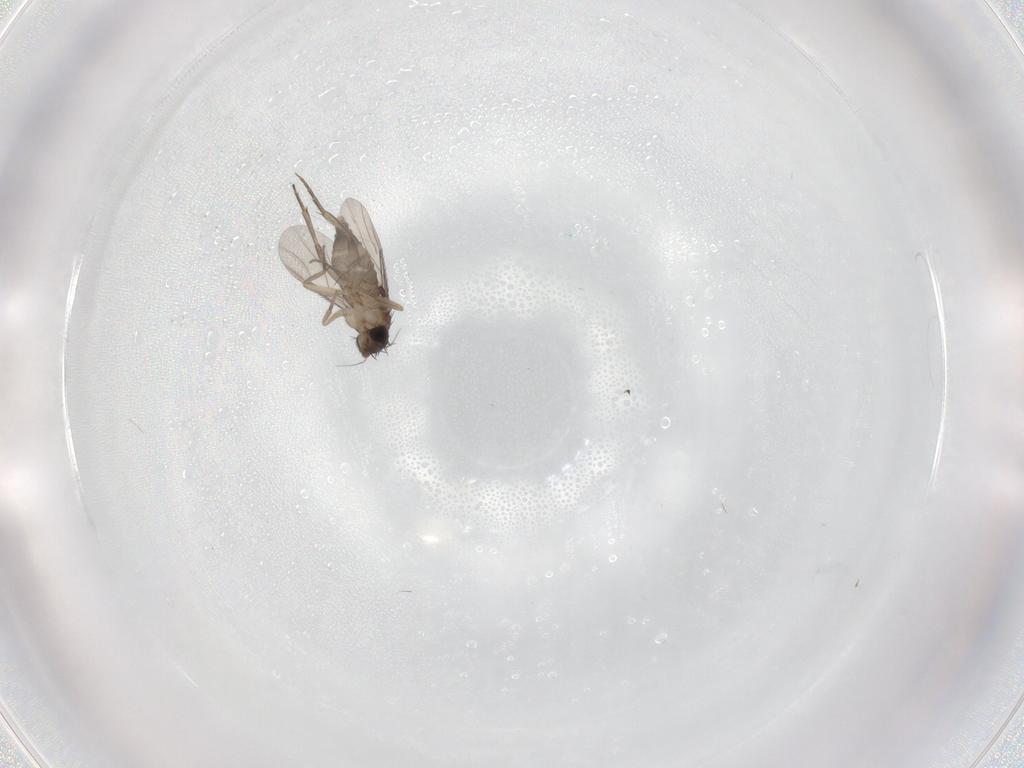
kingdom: Animalia
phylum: Arthropoda
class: Insecta
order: Diptera
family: Phoridae
